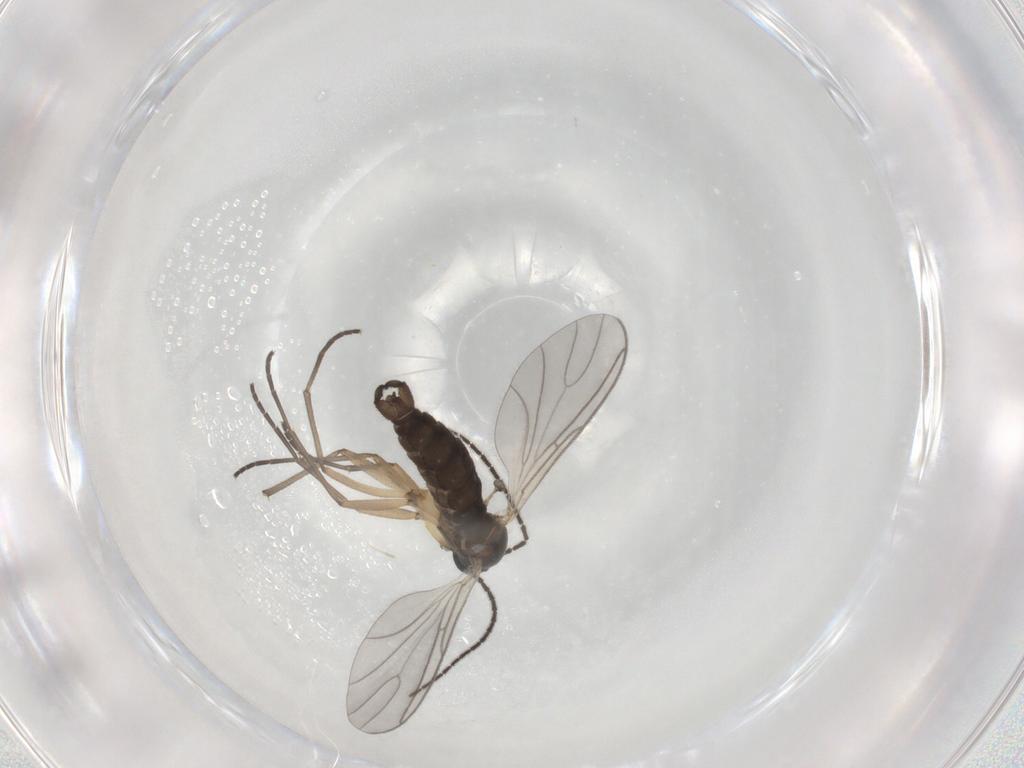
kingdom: Animalia
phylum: Arthropoda
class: Insecta
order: Diptera
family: Sciaridae
